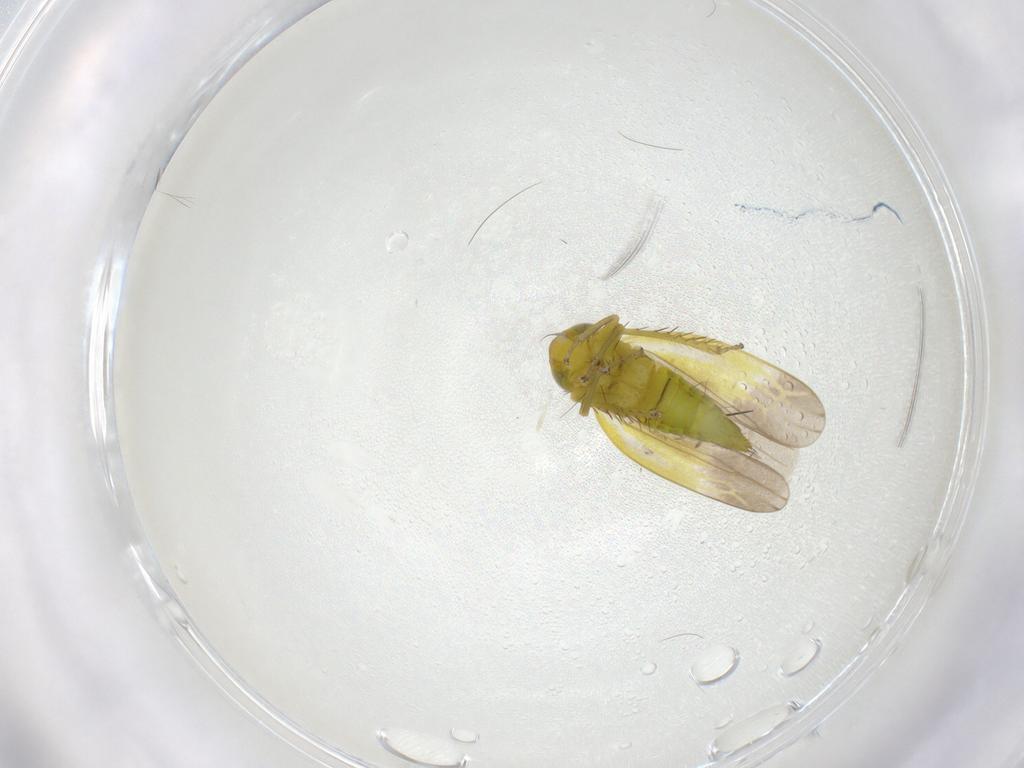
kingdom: Animalia
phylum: Arthropoda
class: Insecta
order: Hemiptera
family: Cicadellidae
